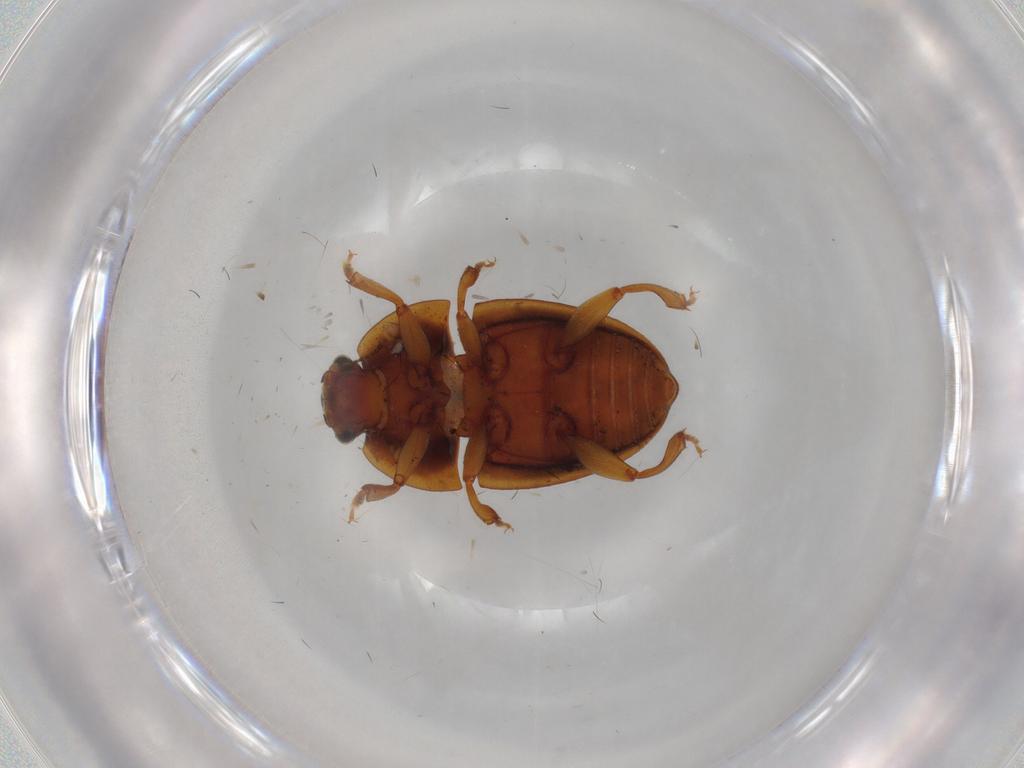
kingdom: Animalia
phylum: Arthropoda
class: Insecta
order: Coleoptera
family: Nitidulidae
